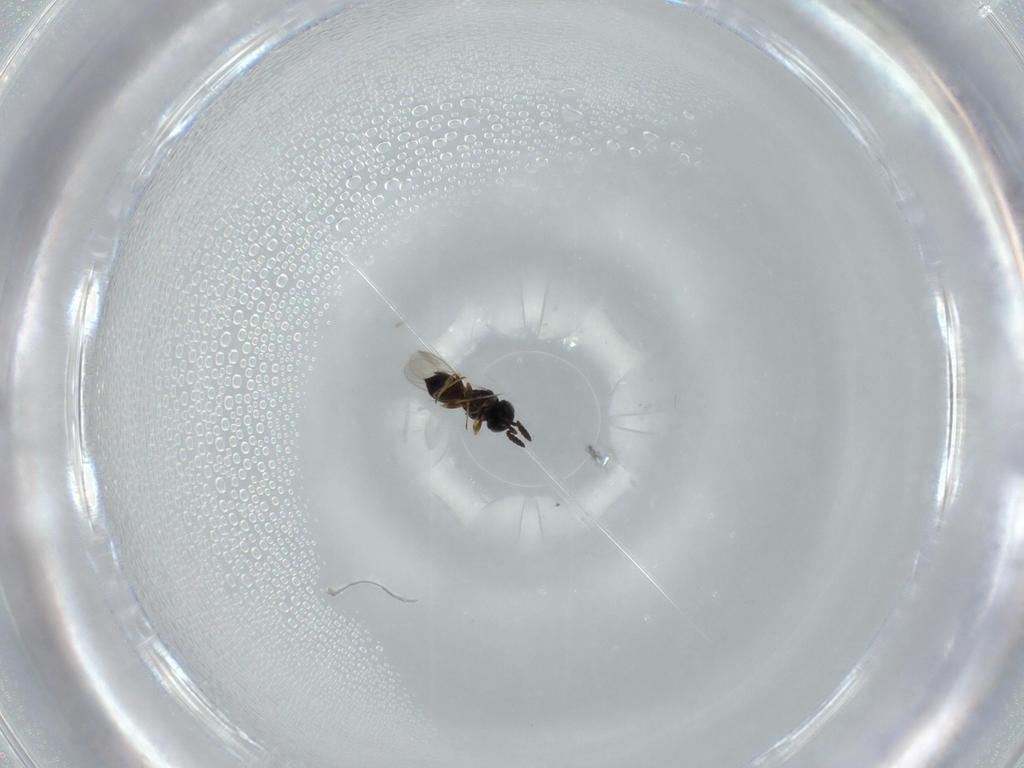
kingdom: Animalia
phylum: Arthropoda
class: Insecta
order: Hymenoptera
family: Scelionidae
